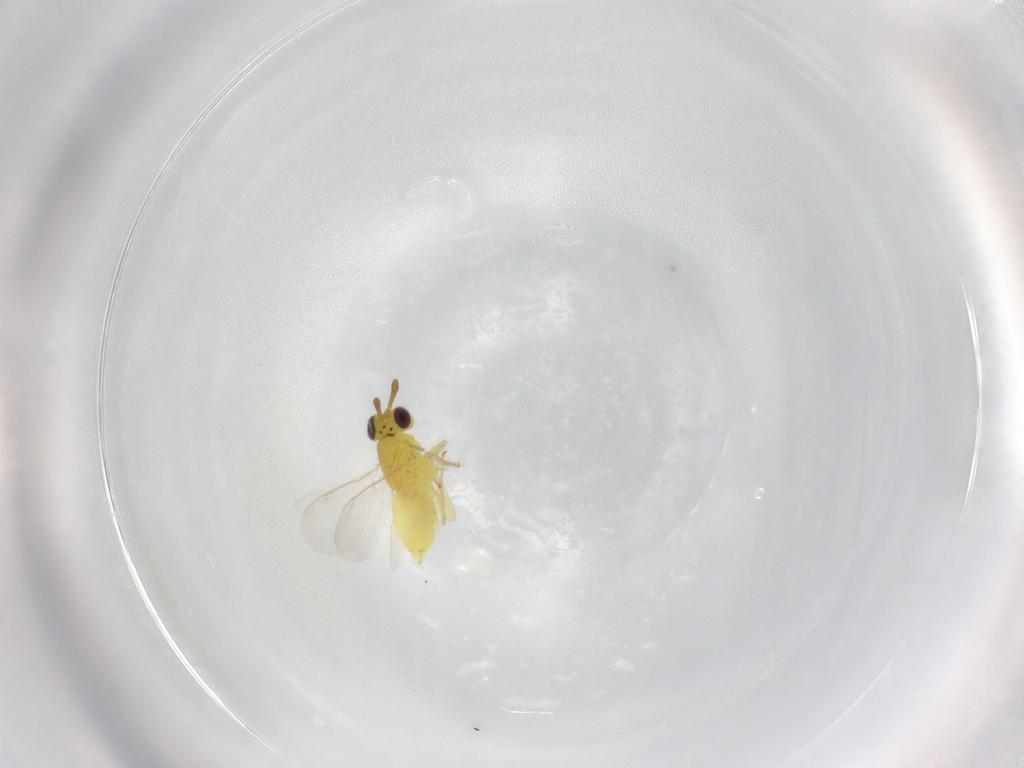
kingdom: Animalia
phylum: Arthropoda
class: Insecta
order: Hymenoptera
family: Aphelinidae
